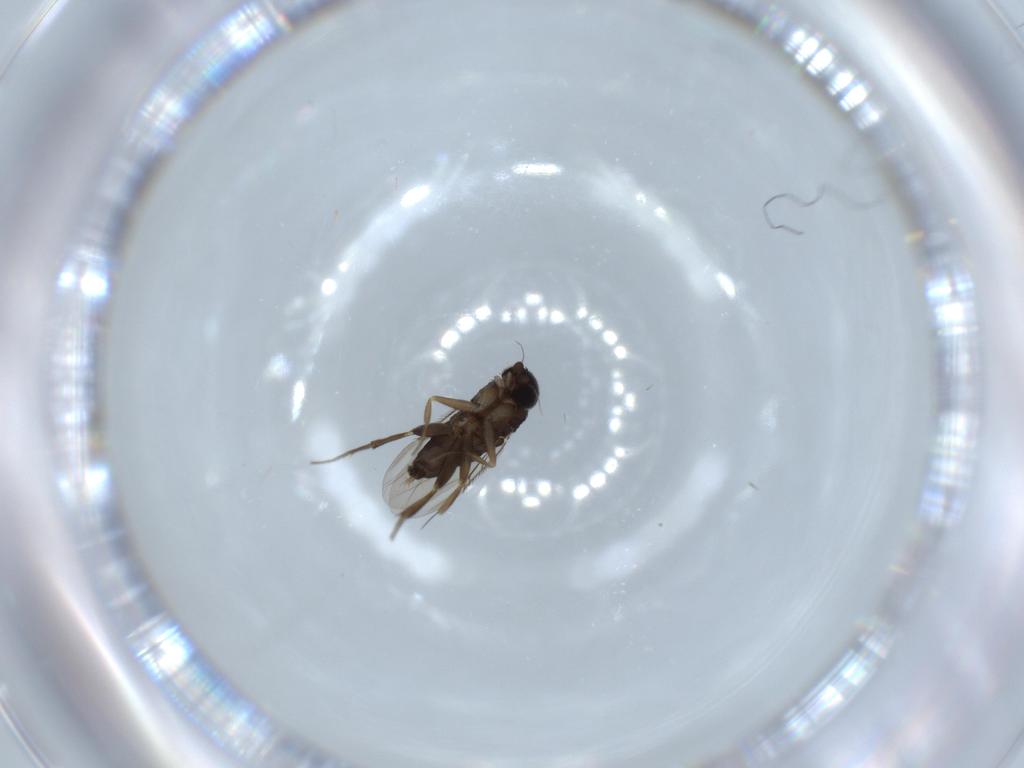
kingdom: Animalia
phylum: Arthropoda
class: Insecta
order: Diptera
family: Phoridae
